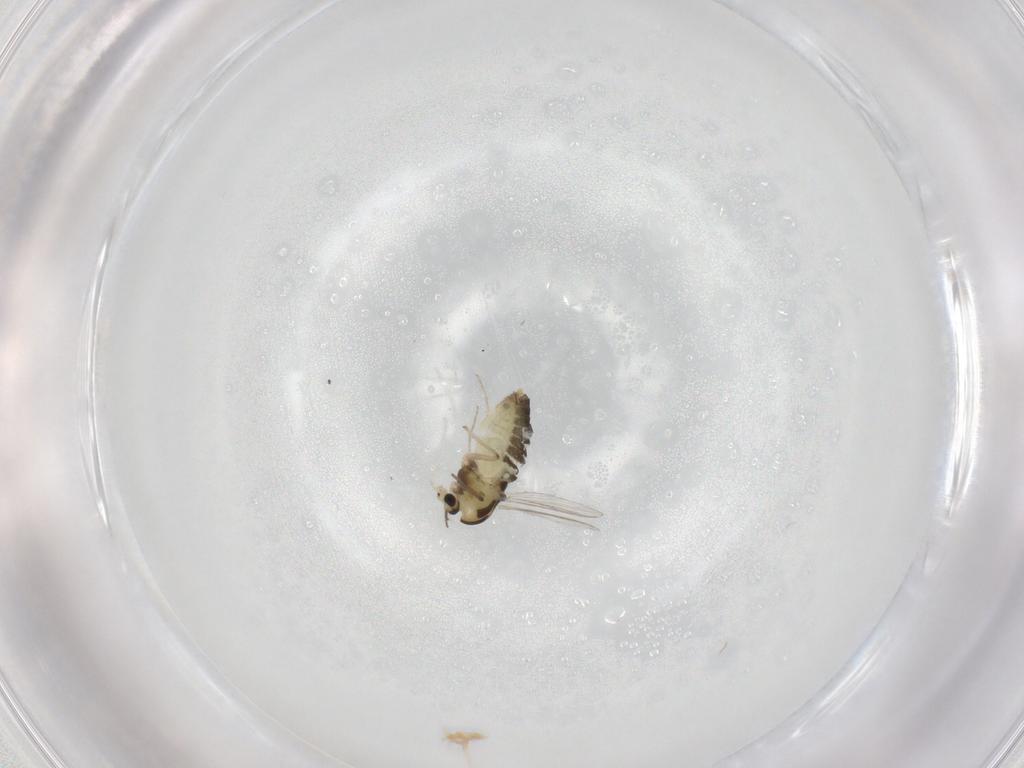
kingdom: Animalia
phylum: Arthropoda
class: Insecta
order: Diptera
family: Chironomidae
